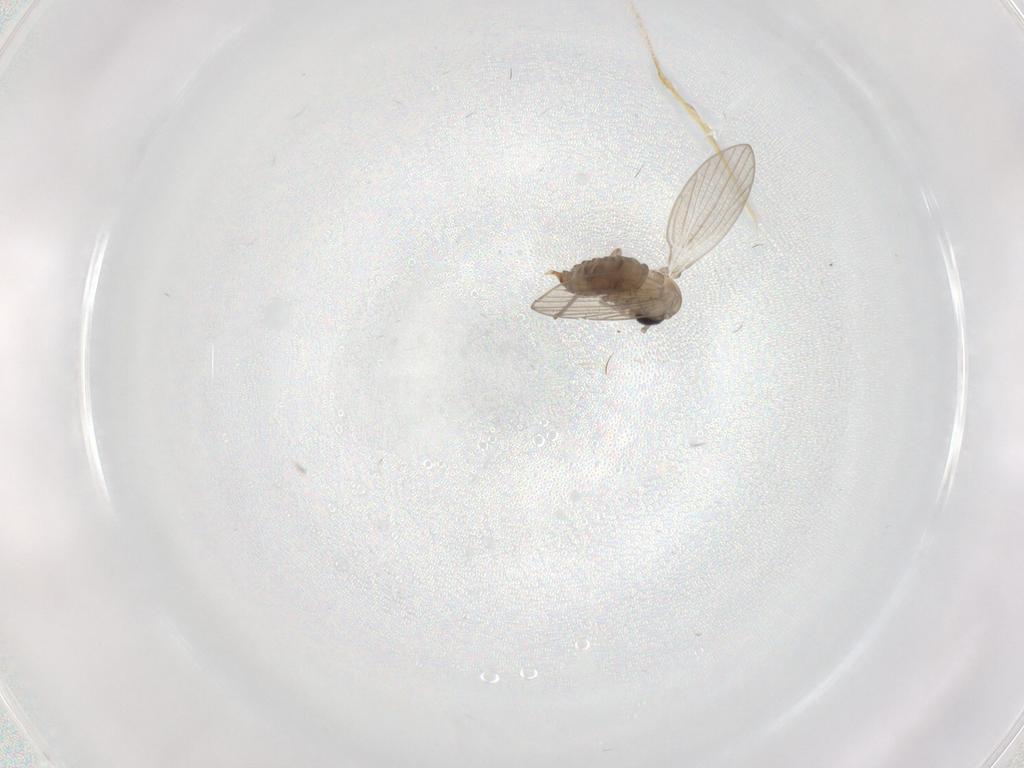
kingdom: Animalia
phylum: Arthropoda
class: Insecta
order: Diptera
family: Psychodidae
